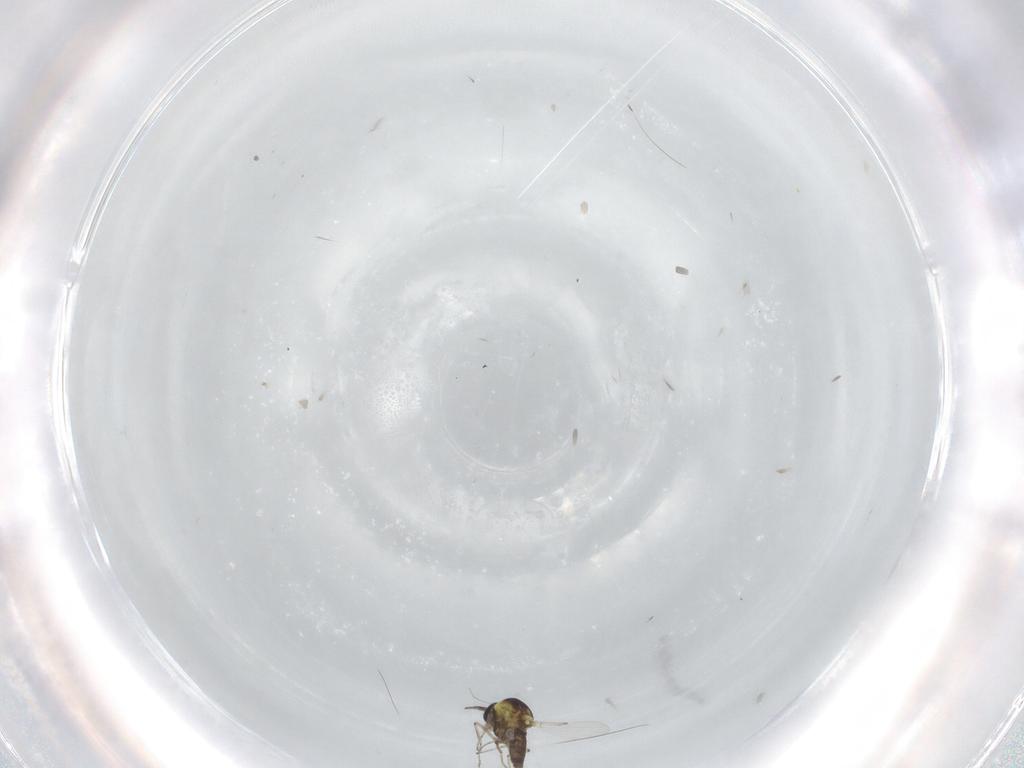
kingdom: Animalia
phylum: Arthropoda
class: Insecta
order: Diptera
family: Ceratopogonidae
